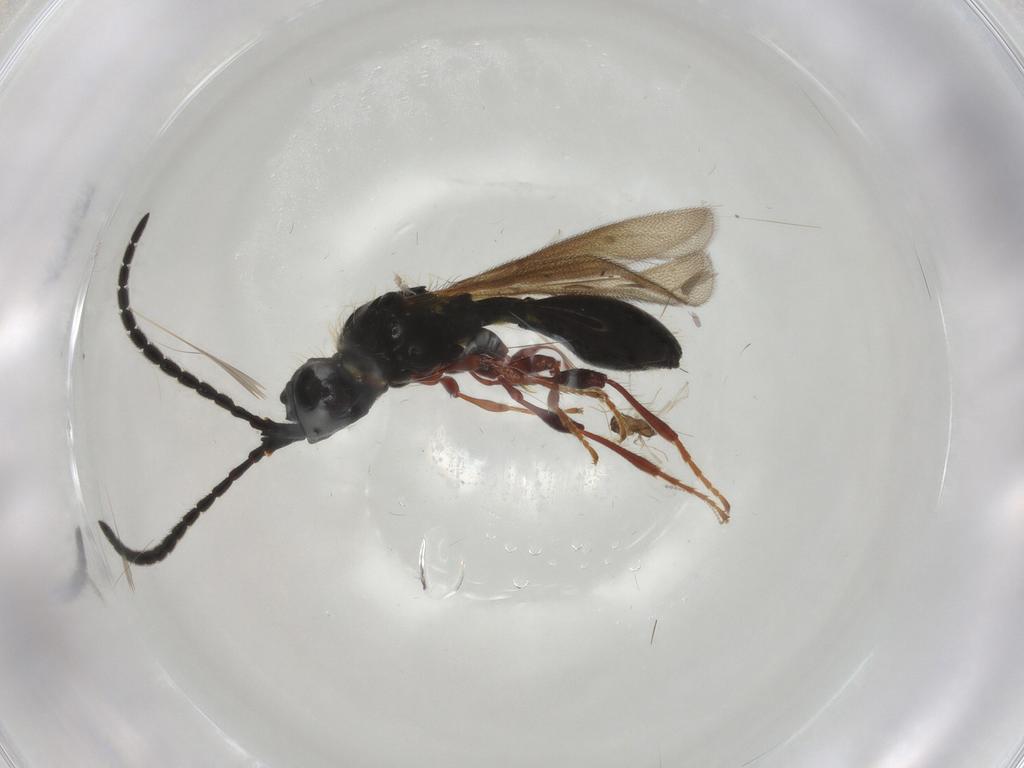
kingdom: Animalia
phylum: Arthropoda
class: Insecta
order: Hymenoptera
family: Diapriidae
